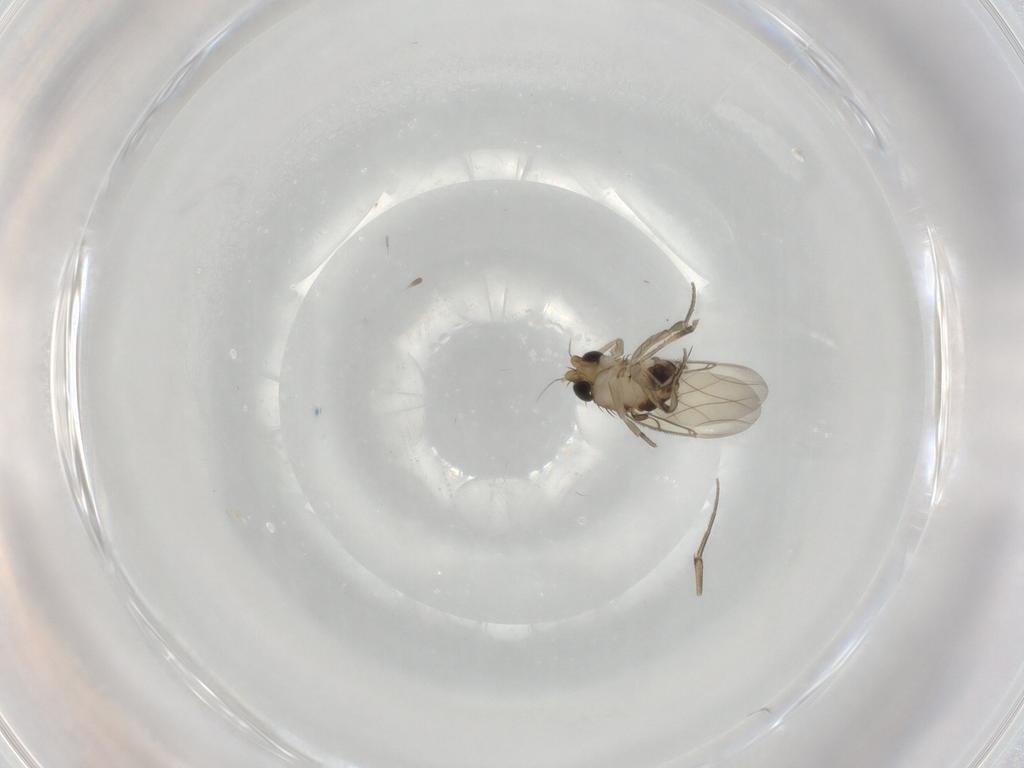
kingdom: Animalia
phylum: Arthropoda
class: Insecta
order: Diptera
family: Phoridae
